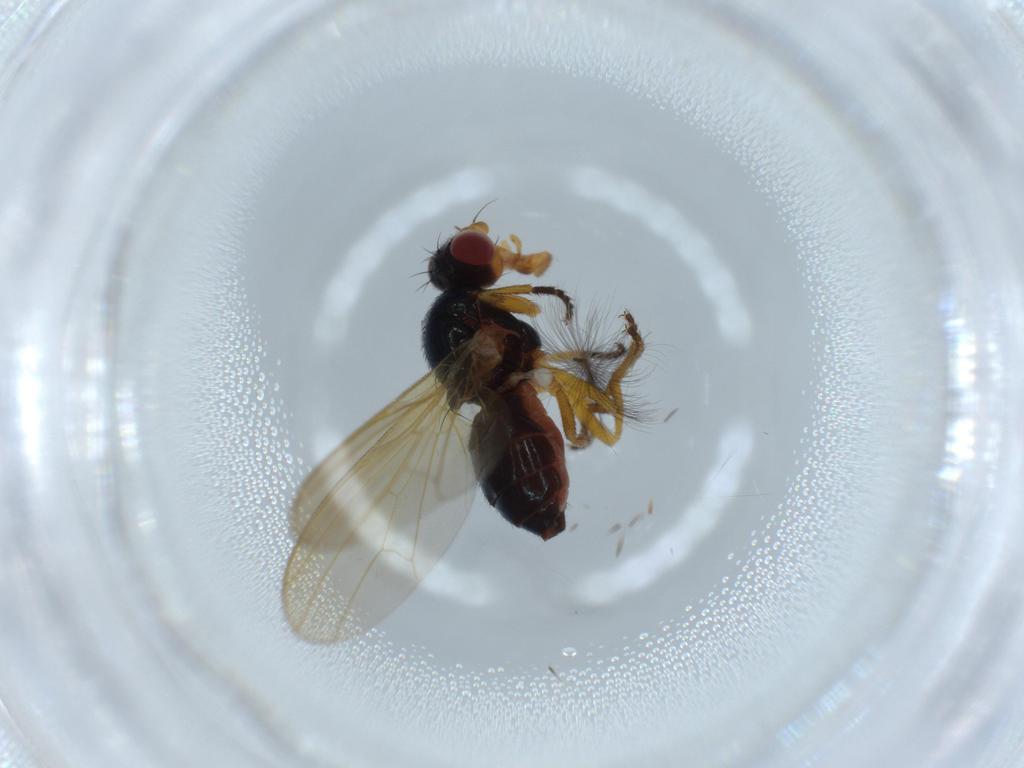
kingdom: Animalia
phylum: Arthropoda
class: Insecta
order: Diptera
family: Piophilidae
